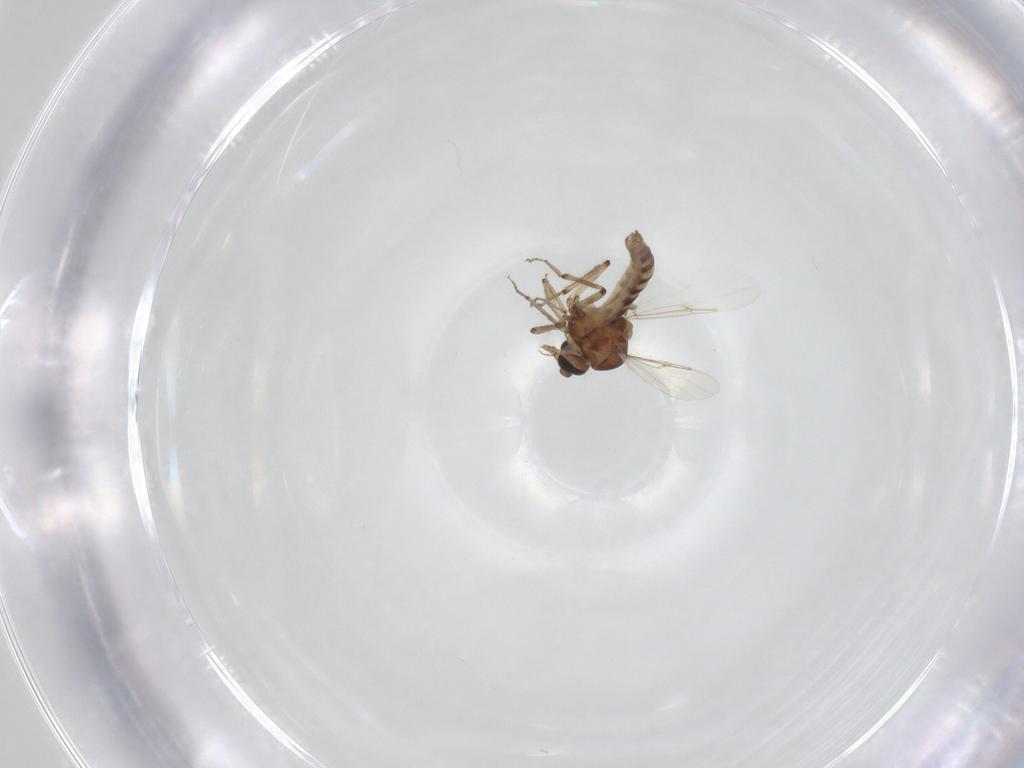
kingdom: Animalia
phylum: Arthropoda
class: Insecta
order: Diptera
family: Ceratopogonidae
